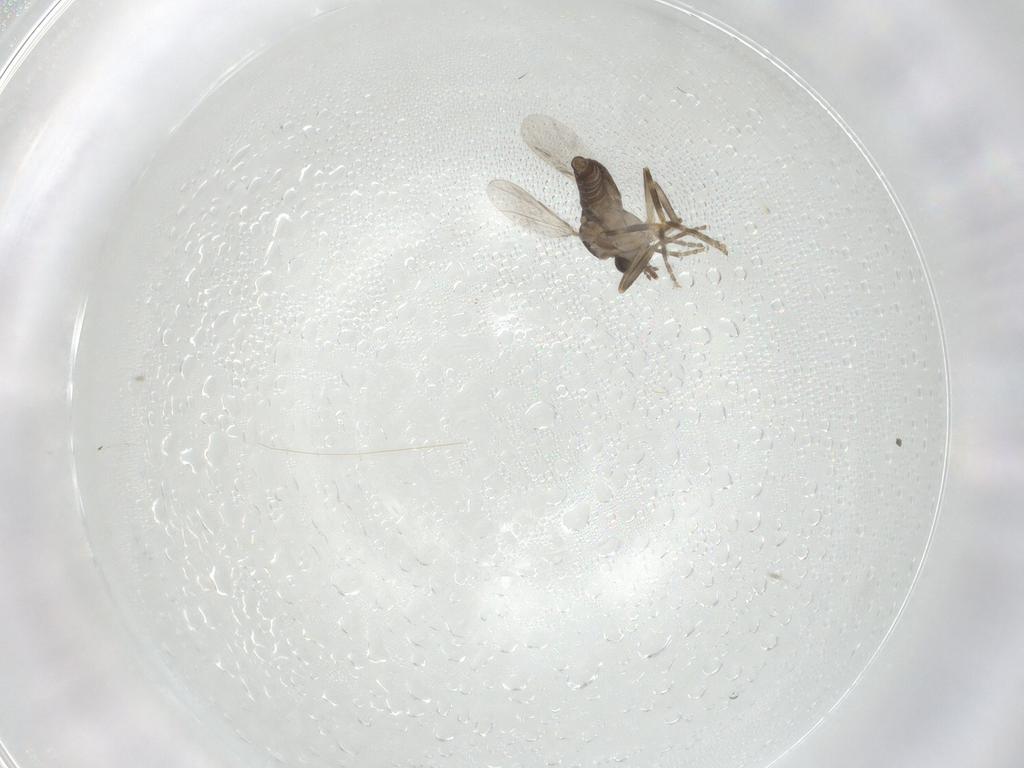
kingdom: Animalia
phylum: Arthropoda
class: Insecta
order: Diptera
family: Ceratopogonidae
